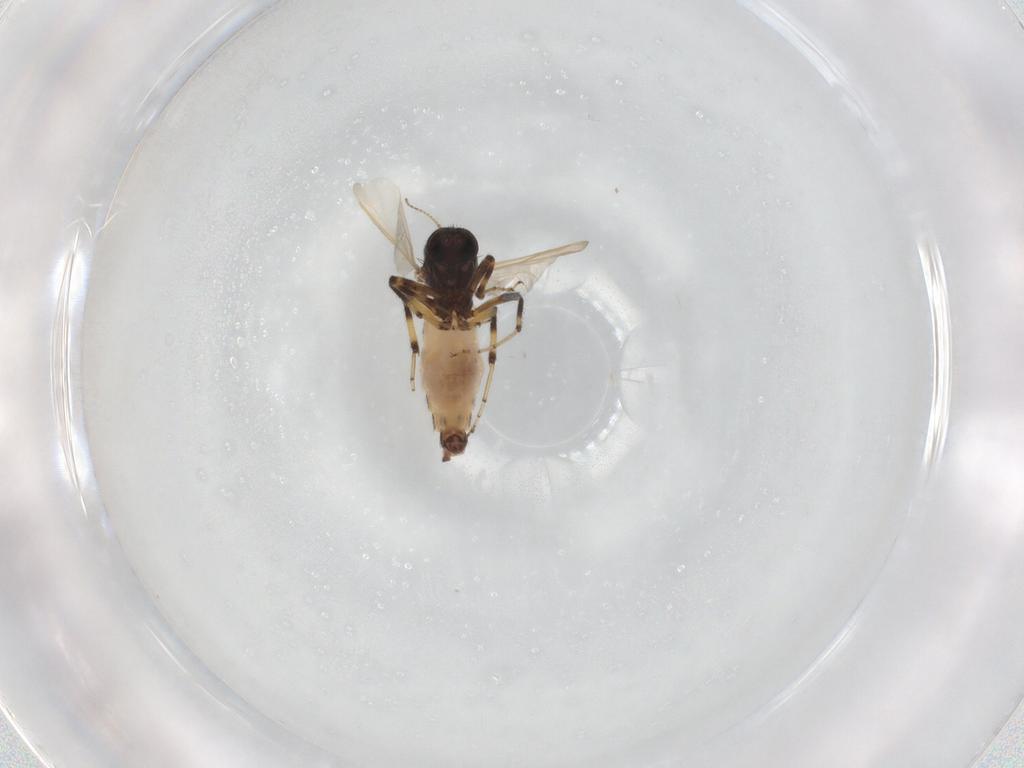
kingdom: Animalia
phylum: Arthropoda
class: Insecta
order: Diptera
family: Ceratopogonidae
